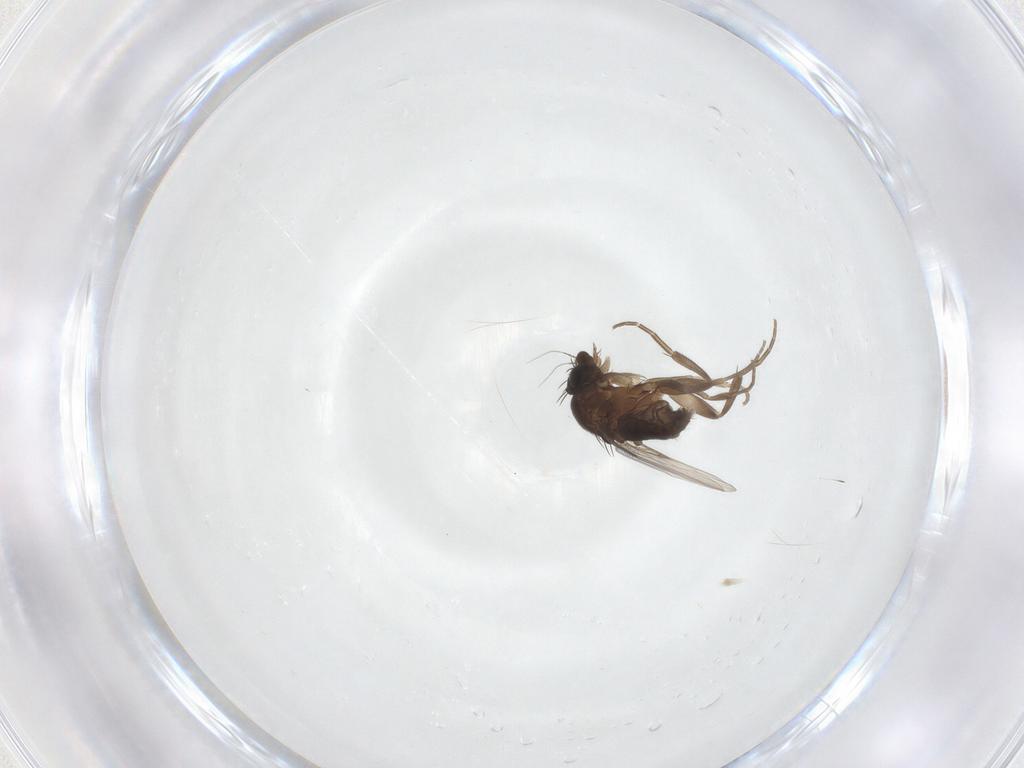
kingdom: Animalia
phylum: Arthropoda
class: Insecta
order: Diptera
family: Phoridae
